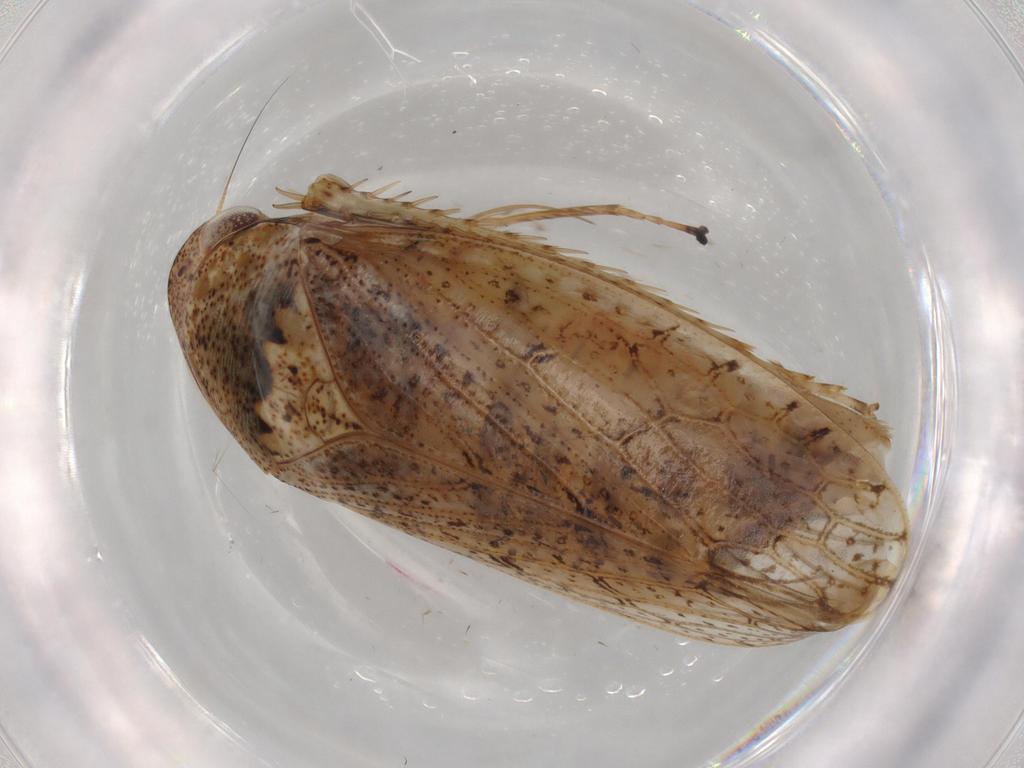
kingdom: Animalia
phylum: Arthropoda
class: Insecta
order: Hemiptera
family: Cicadellidae
